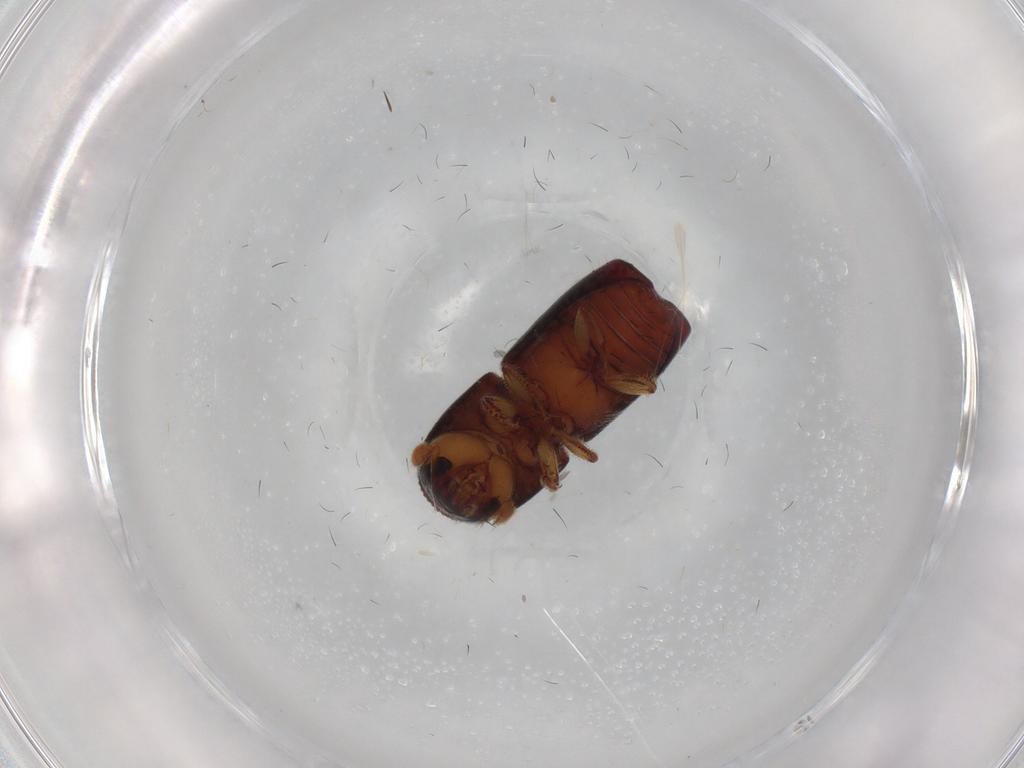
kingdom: Animalia
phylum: Arthropoda
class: Insecta
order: Coleoptera
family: Curculionidae
